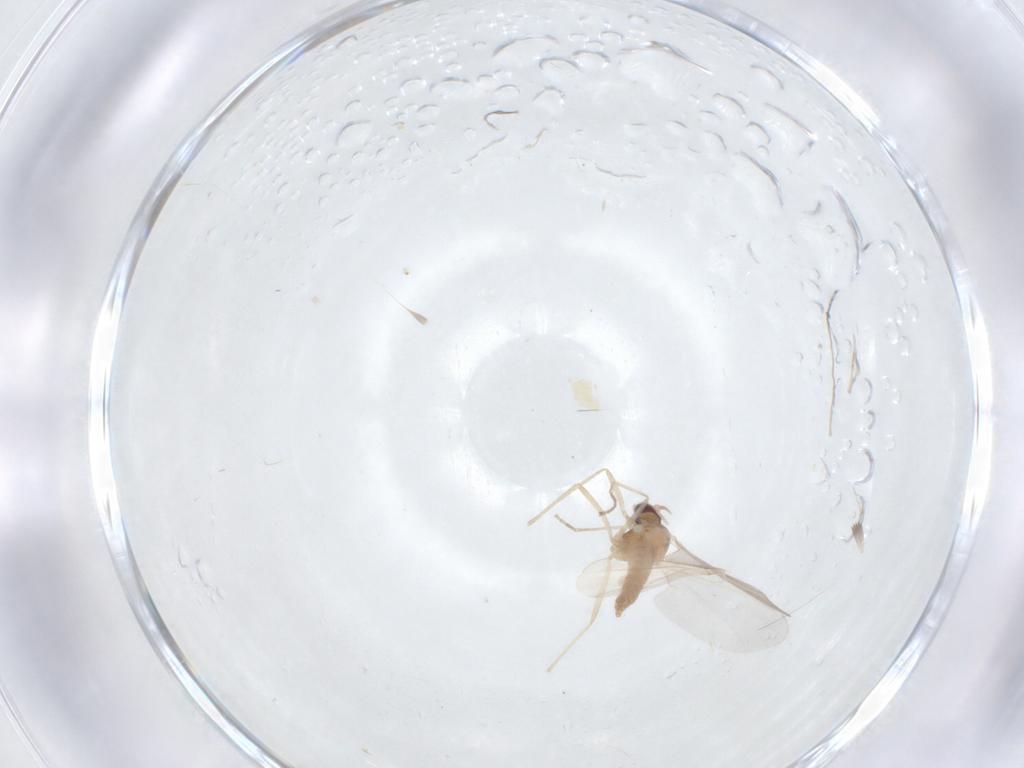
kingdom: Animalia
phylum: Arthropoda
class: Insecta
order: Diptera
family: Cecidomyiidae
